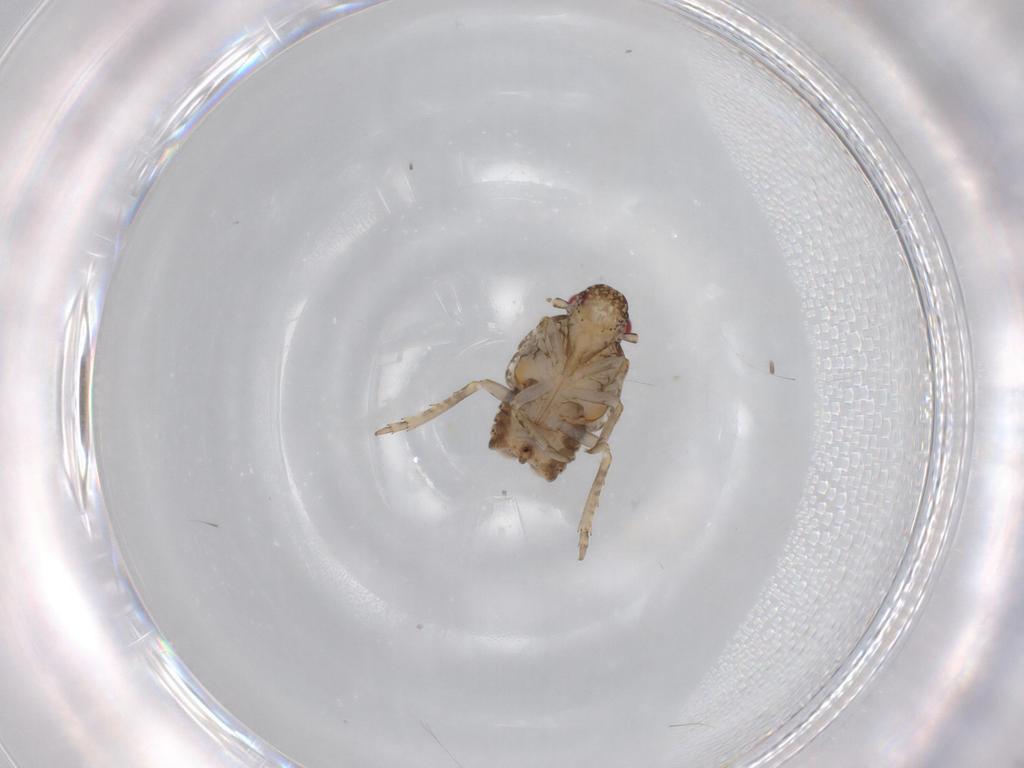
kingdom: Animalia
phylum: Arthropoda
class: Insecta
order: Hemiptera
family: Flatidae
